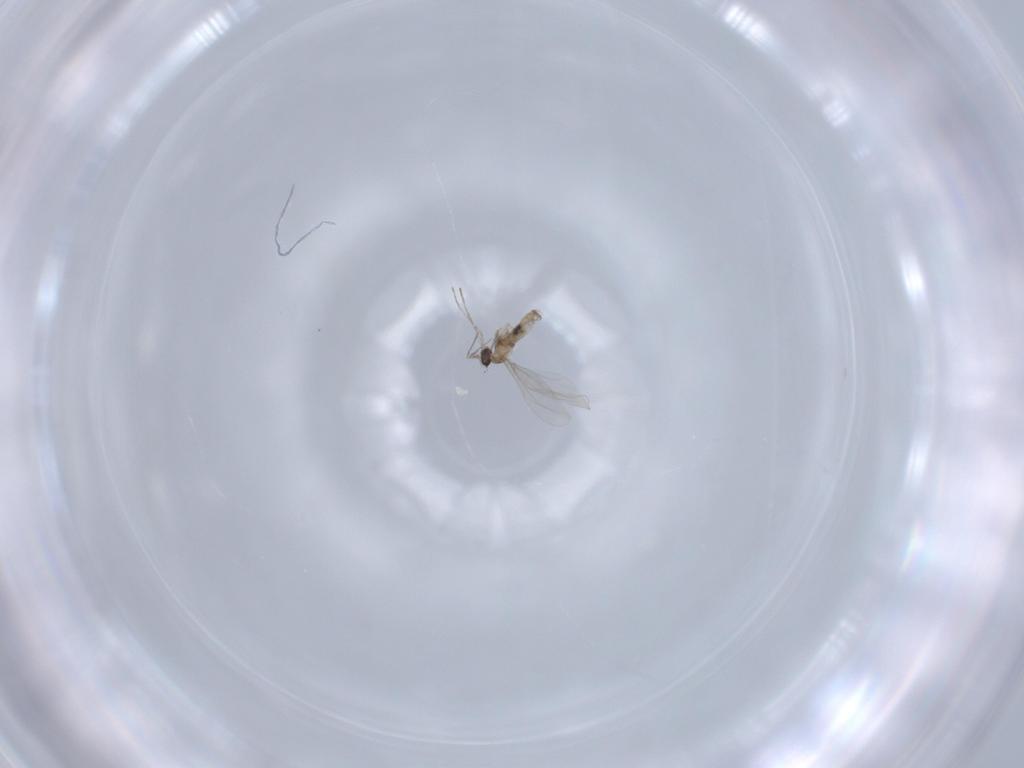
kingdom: Animalia
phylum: Arthropoda
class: Insecta
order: Diptera
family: Cecidomyiidae
